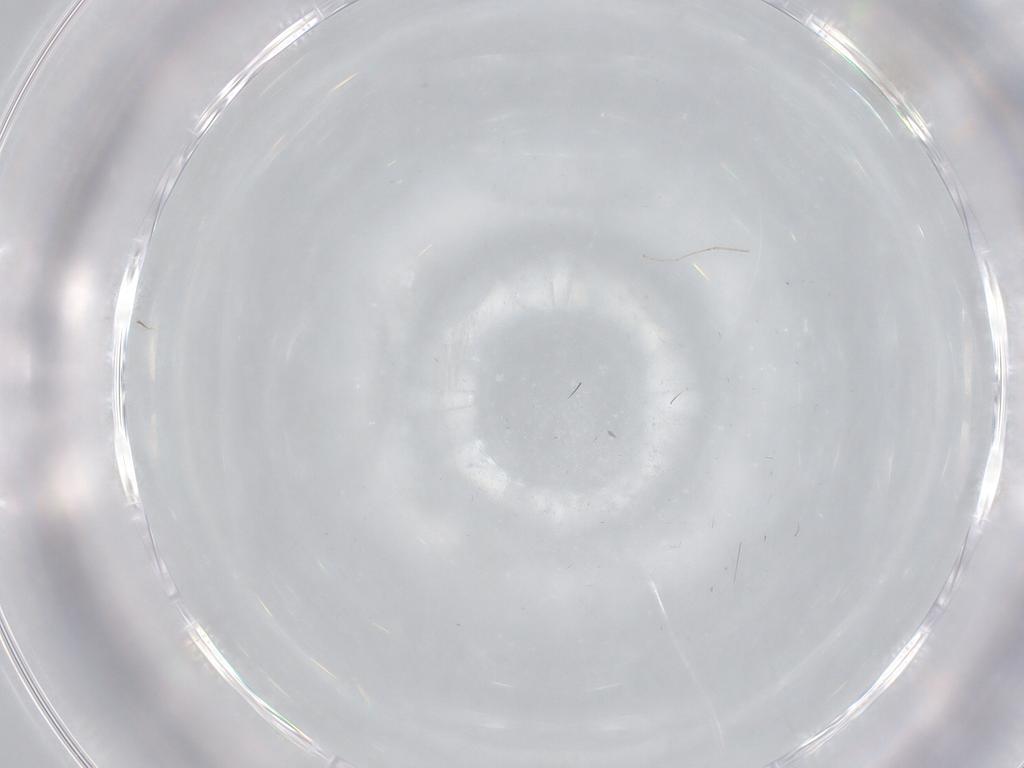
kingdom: Animalia
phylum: Arthropoda
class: Insecta
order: Diptera
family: Cecidomyiidae
